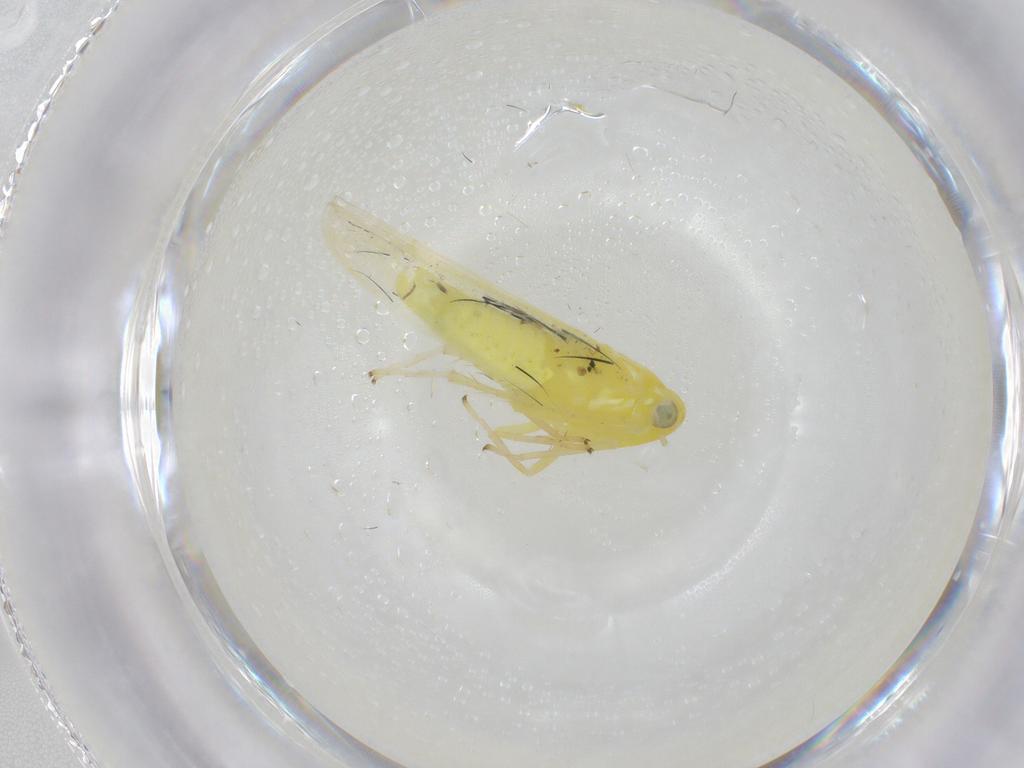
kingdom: Animalia
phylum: Arthropoda
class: Insecta
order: Hemiptera
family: Cicadellidae
